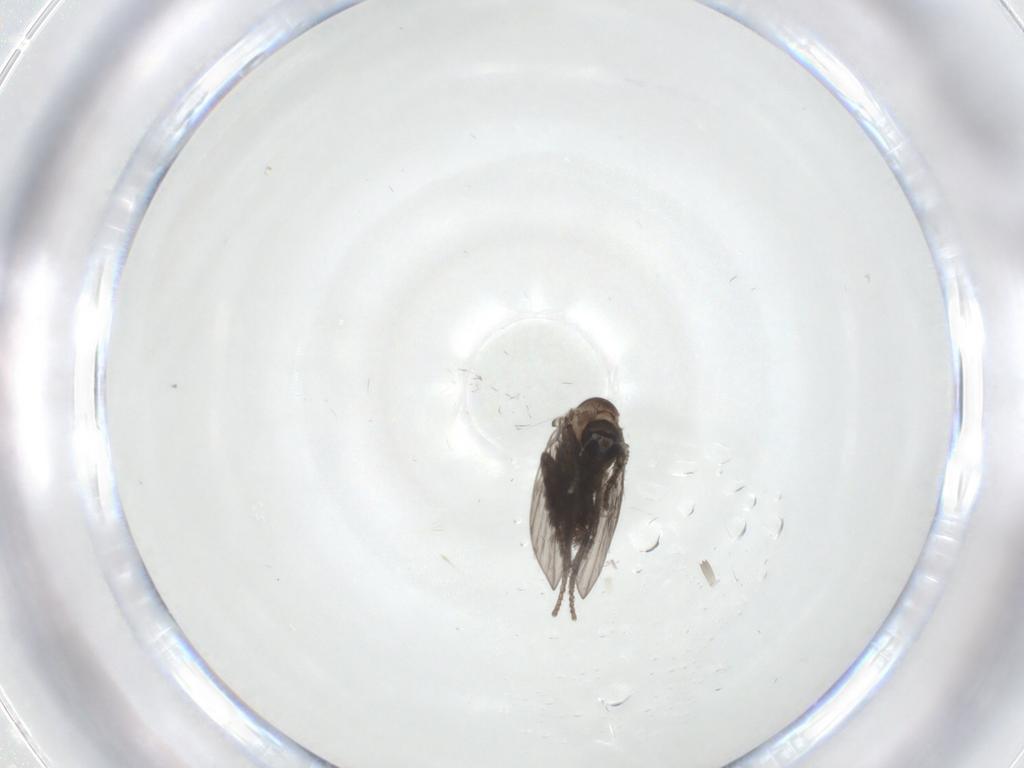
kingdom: Animalia
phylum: Arthropoda
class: Insecta
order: Diptera
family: Psychodidae
